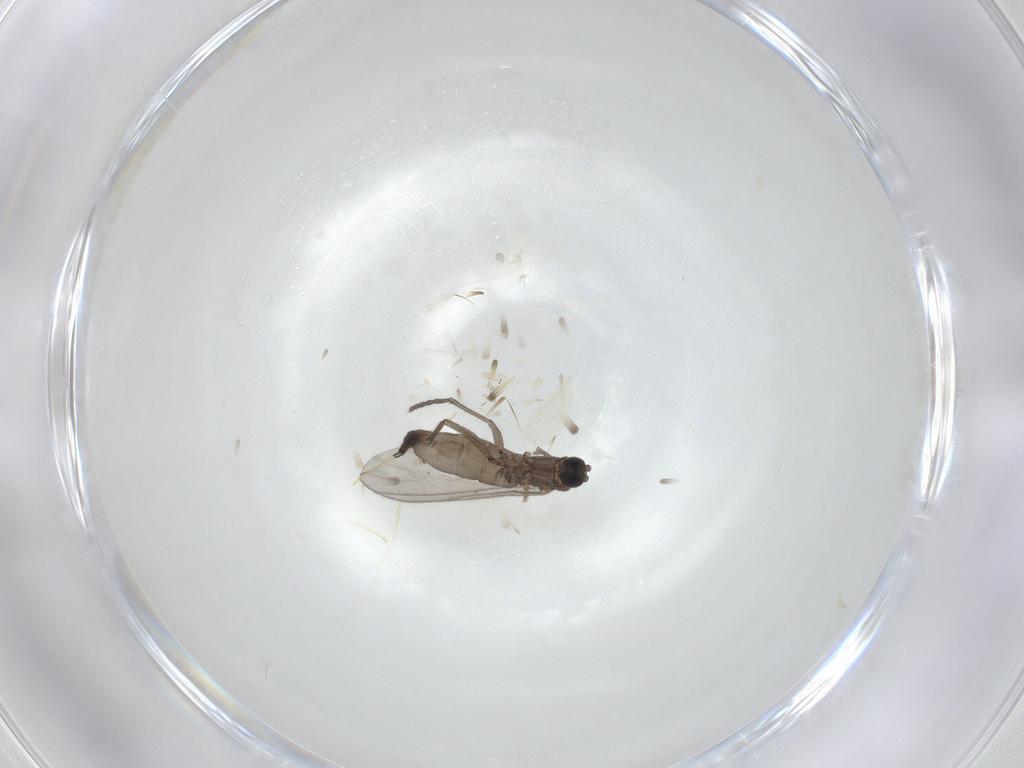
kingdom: Animalia
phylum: Arthropoda
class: Insecta
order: Diptera
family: Sciaridae
